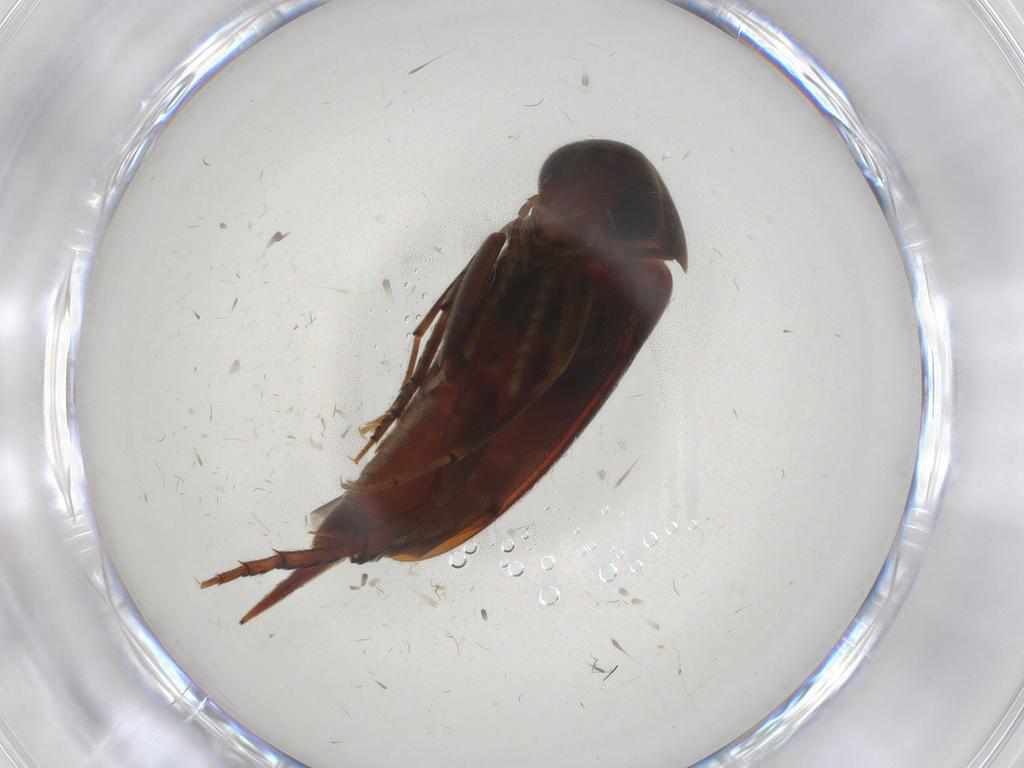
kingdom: Animalia
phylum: Arthropoda
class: Insecta
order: Coleoptera
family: Mordellidae
